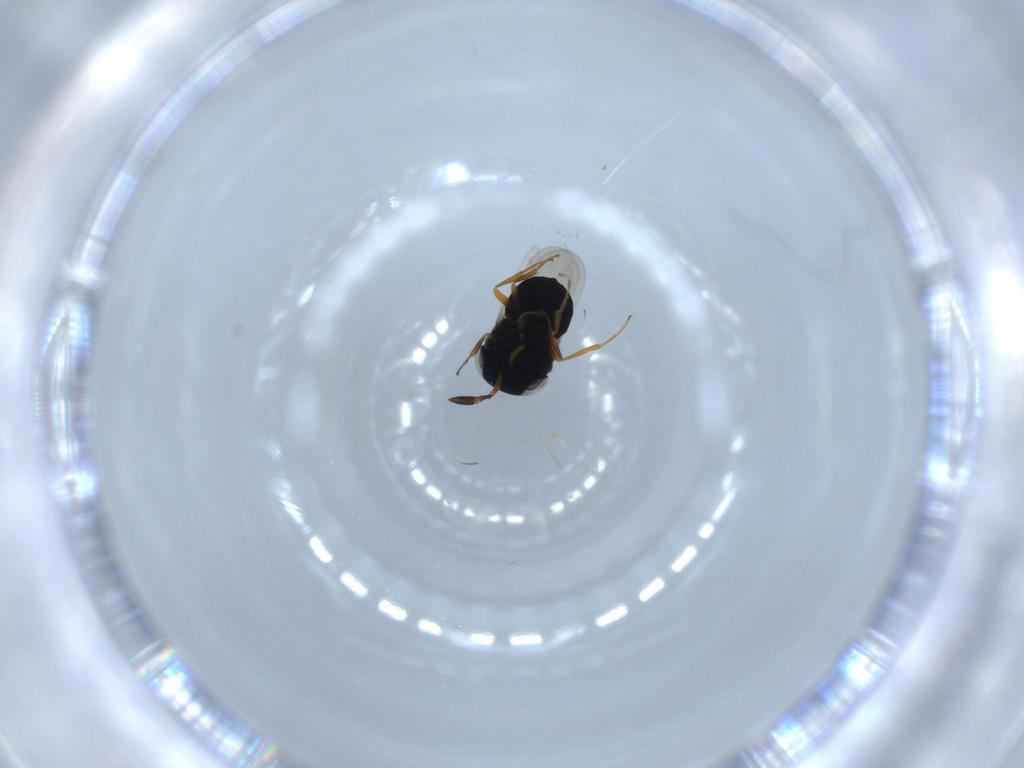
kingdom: Animalia
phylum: Arthropoda
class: Insecta
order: Hymenoptera
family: Scelionidae
